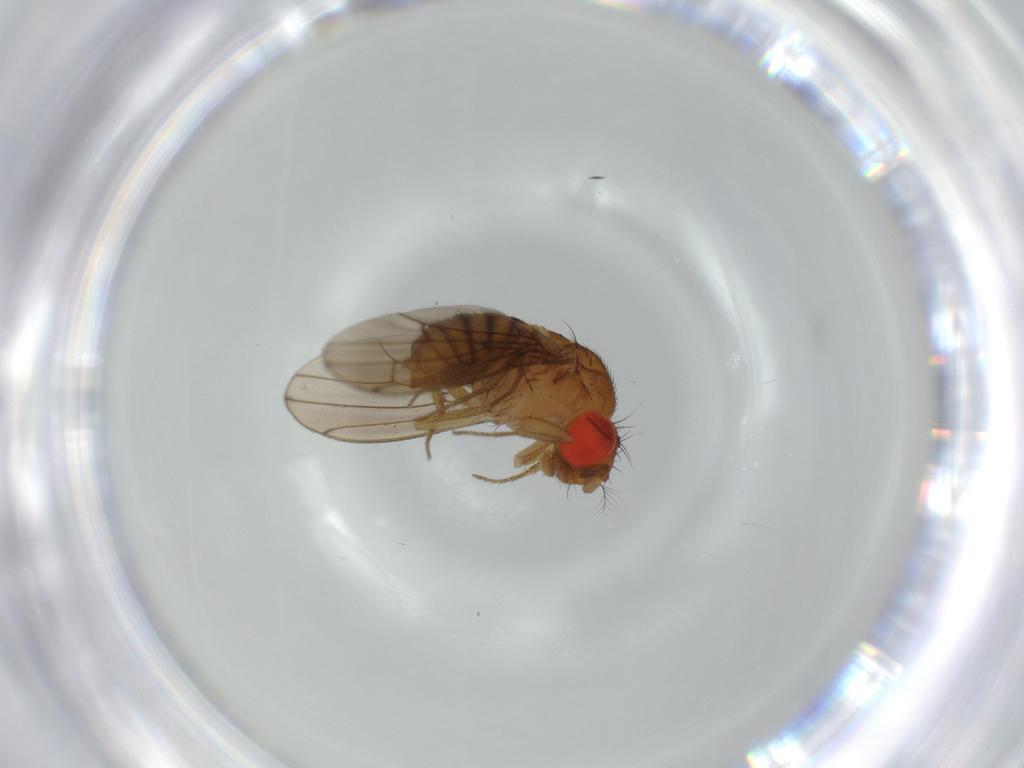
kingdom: Animalia
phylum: Arthropoda
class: Insecta
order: Diptera
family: Drosophilidae
